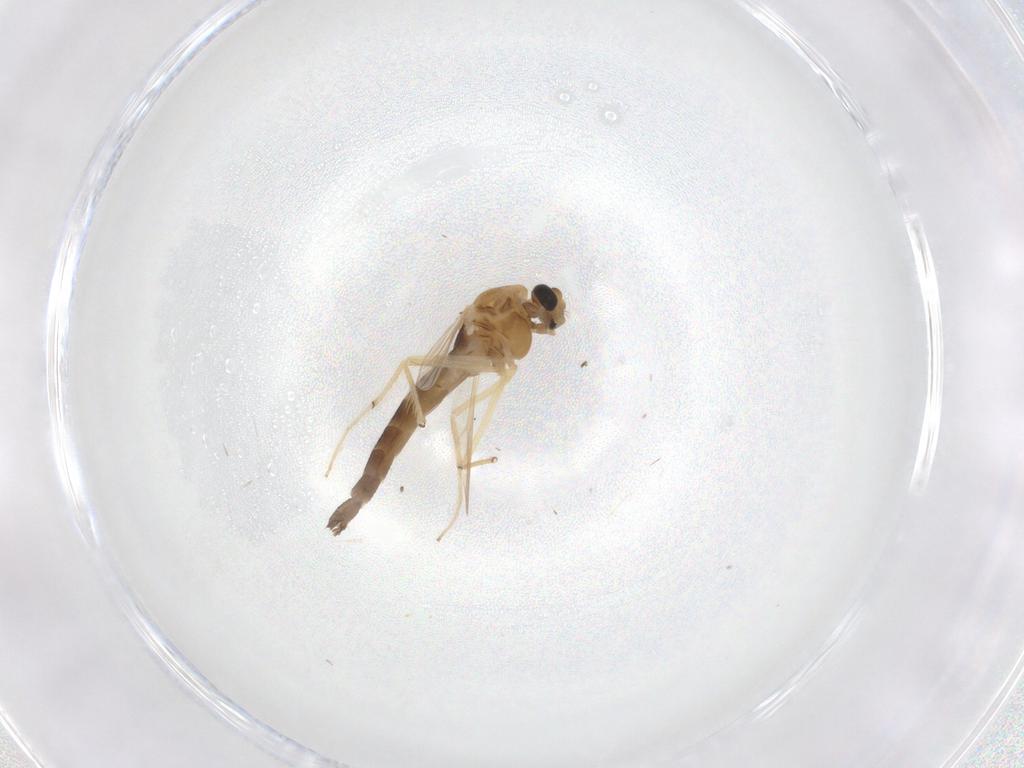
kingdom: Animalia
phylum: Arthropoda
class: Insecta
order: Diptera
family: Chironomidae
